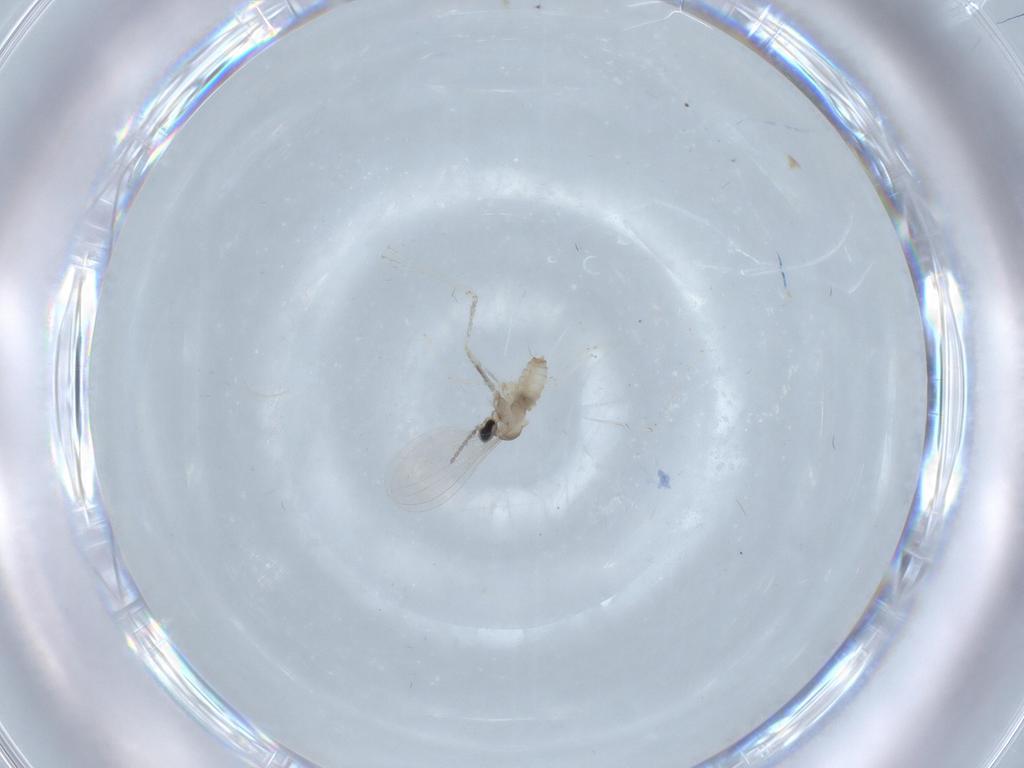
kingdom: Animalia
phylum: Arthropoda
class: Insecta
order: Diptera
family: Cecidomyiidae
